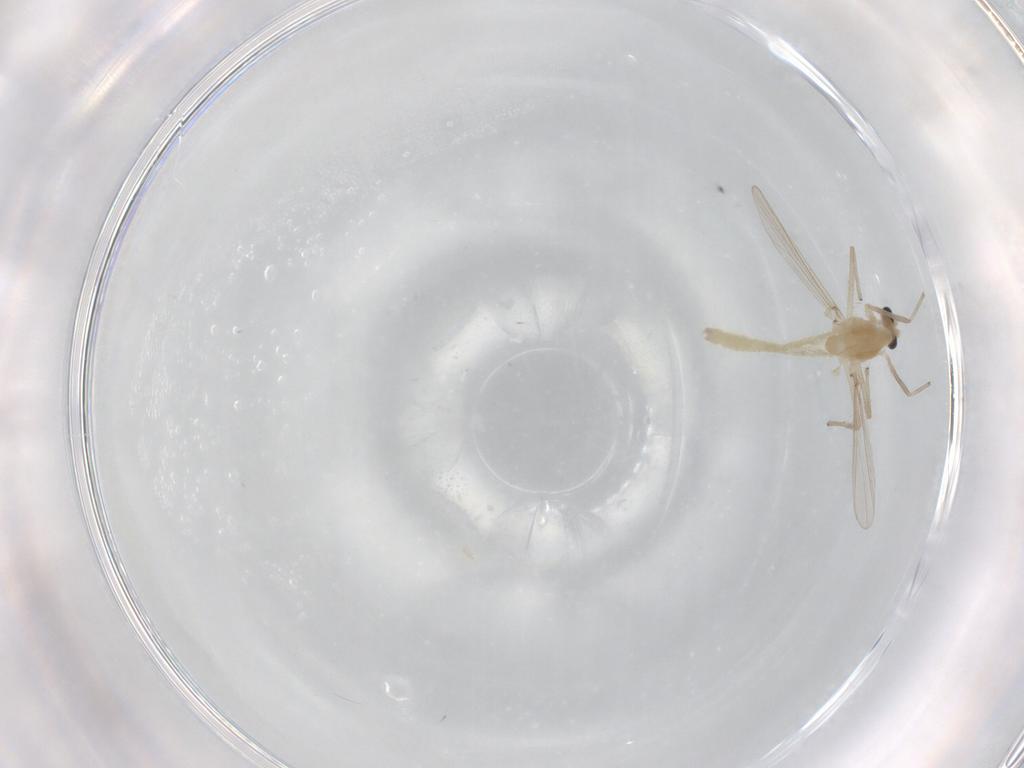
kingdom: Animalia
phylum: Arthropoda
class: Insecta
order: Diptera
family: Chironomidae
